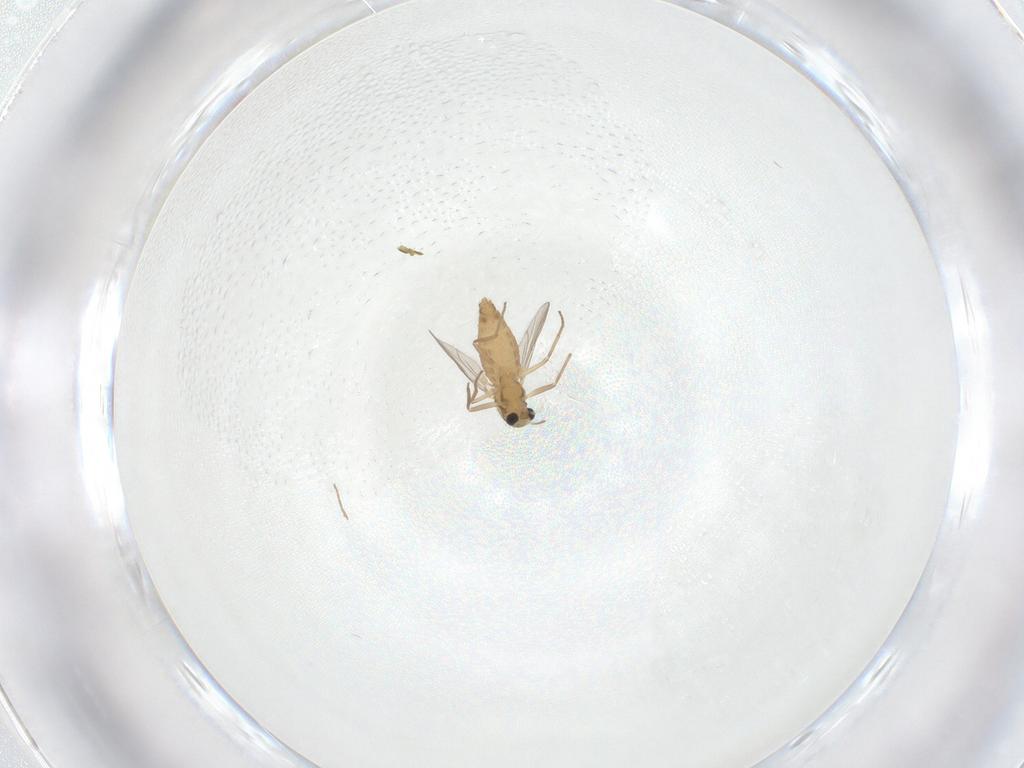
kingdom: Animalia
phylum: Arthropoda
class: Insecta
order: Diptera
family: Chironomidae
